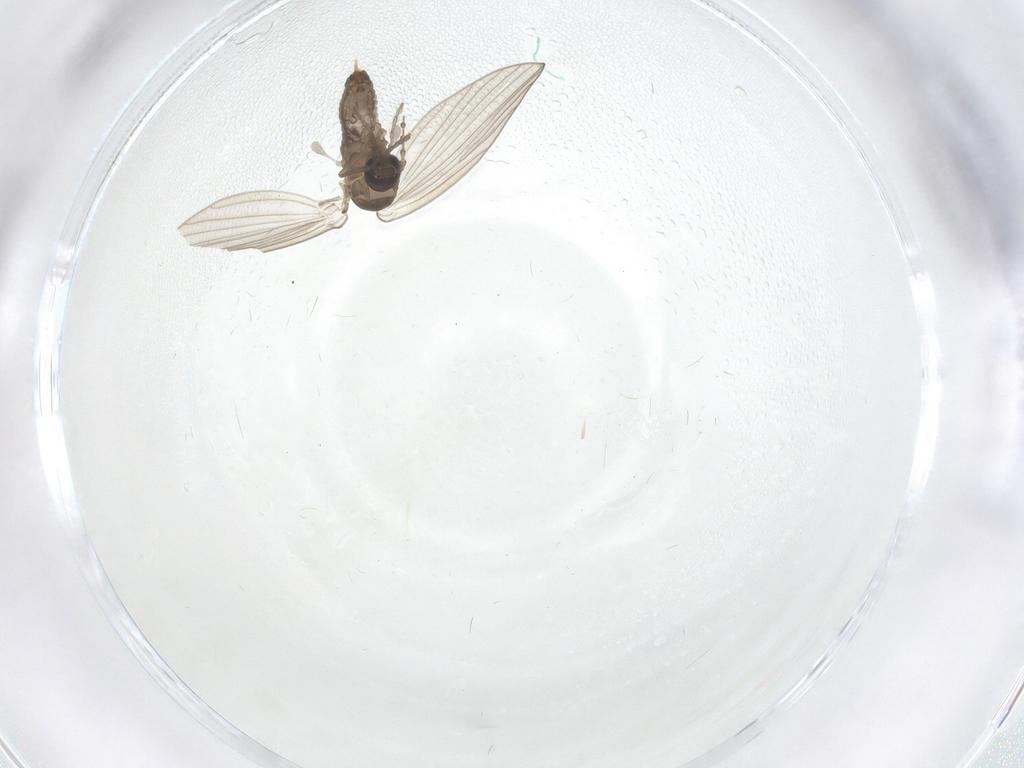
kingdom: Animalia
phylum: Arthropoda
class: Insecta
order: Diptera
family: Psychodidae
